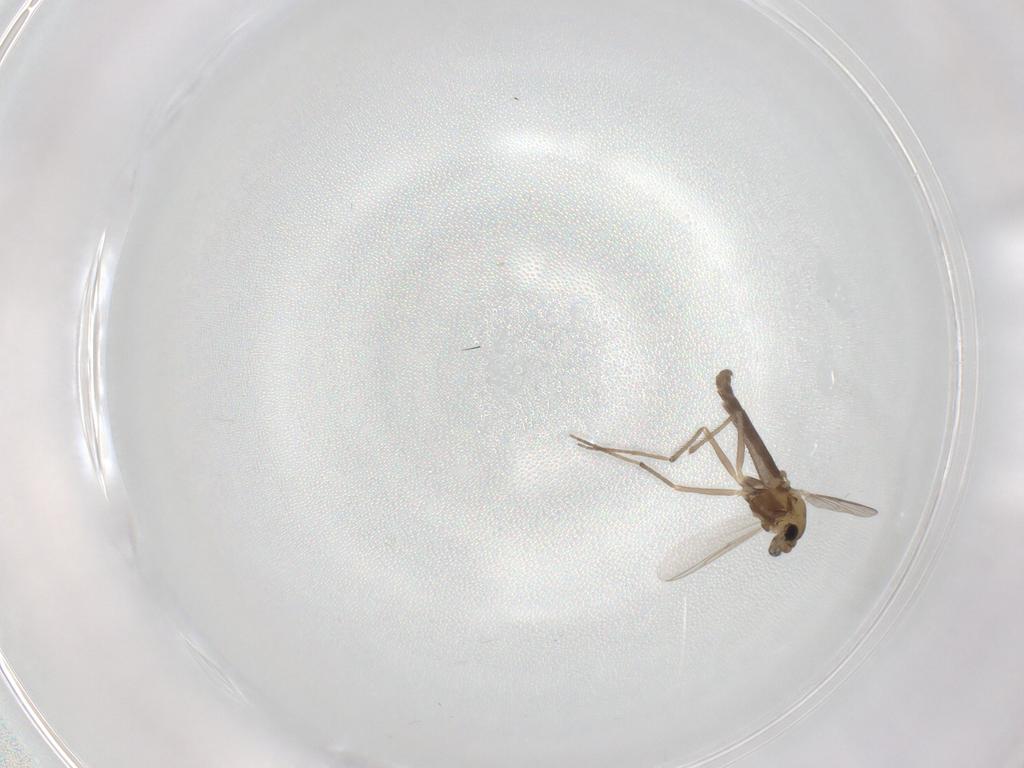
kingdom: Animalia
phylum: Arthropoda
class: Insecta
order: Diptera
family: Chironomidae
